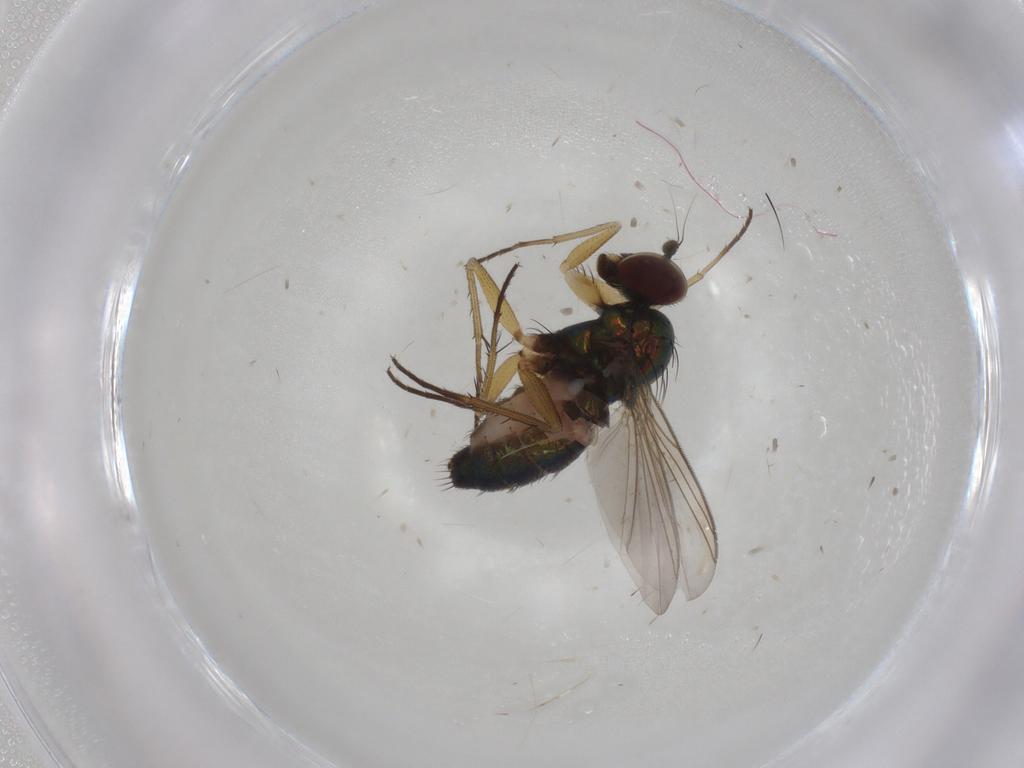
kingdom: Animalia
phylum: Arthropoda
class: Insecta
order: Diptera
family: Dolichopodidae
